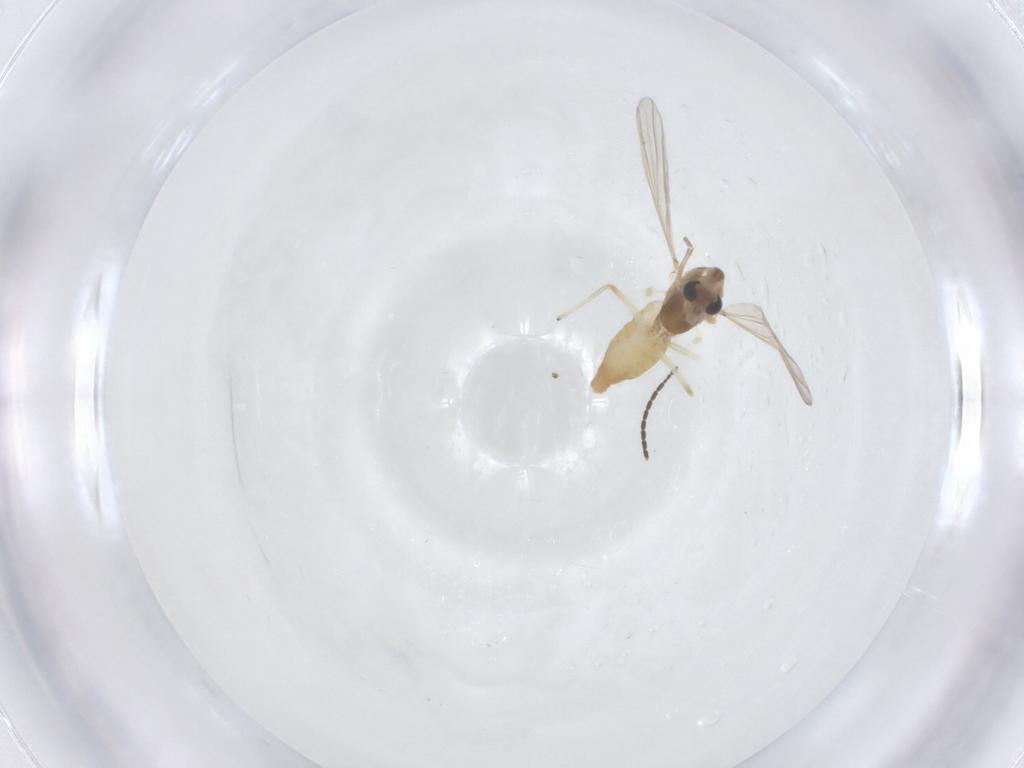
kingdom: Animalia
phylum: Arthropoda
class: Insecta
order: Diptera
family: Chironomidae
